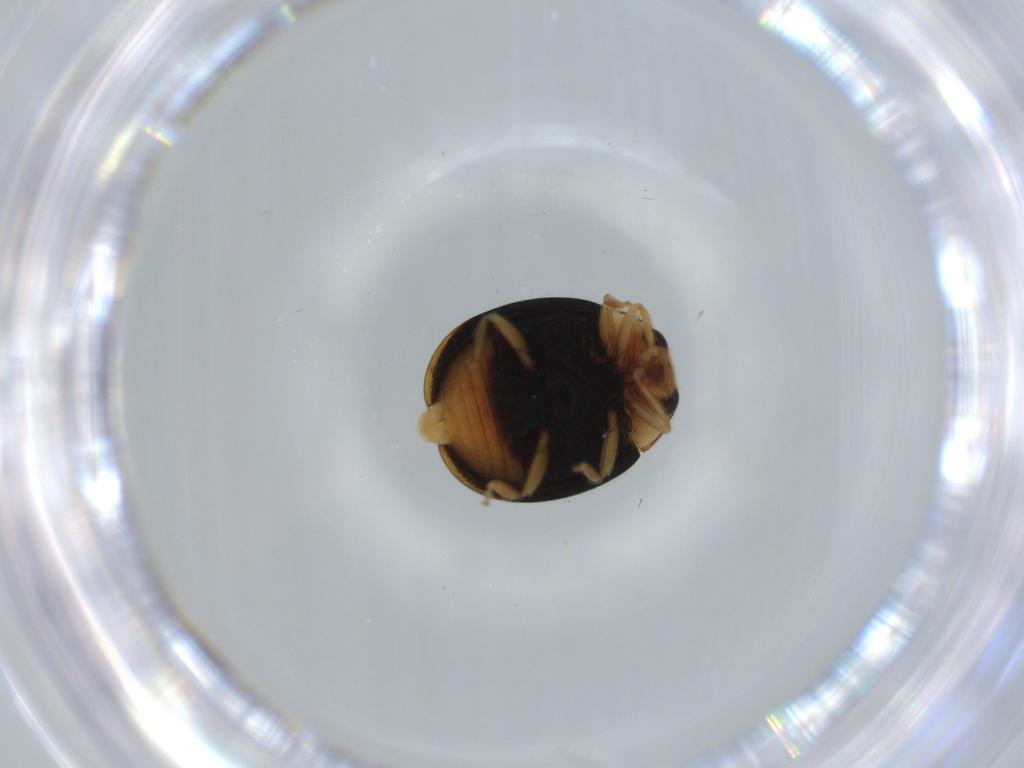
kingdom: Animalia
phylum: Arthropoda
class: Insecta
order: Coleoptera
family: Coccinellidae
